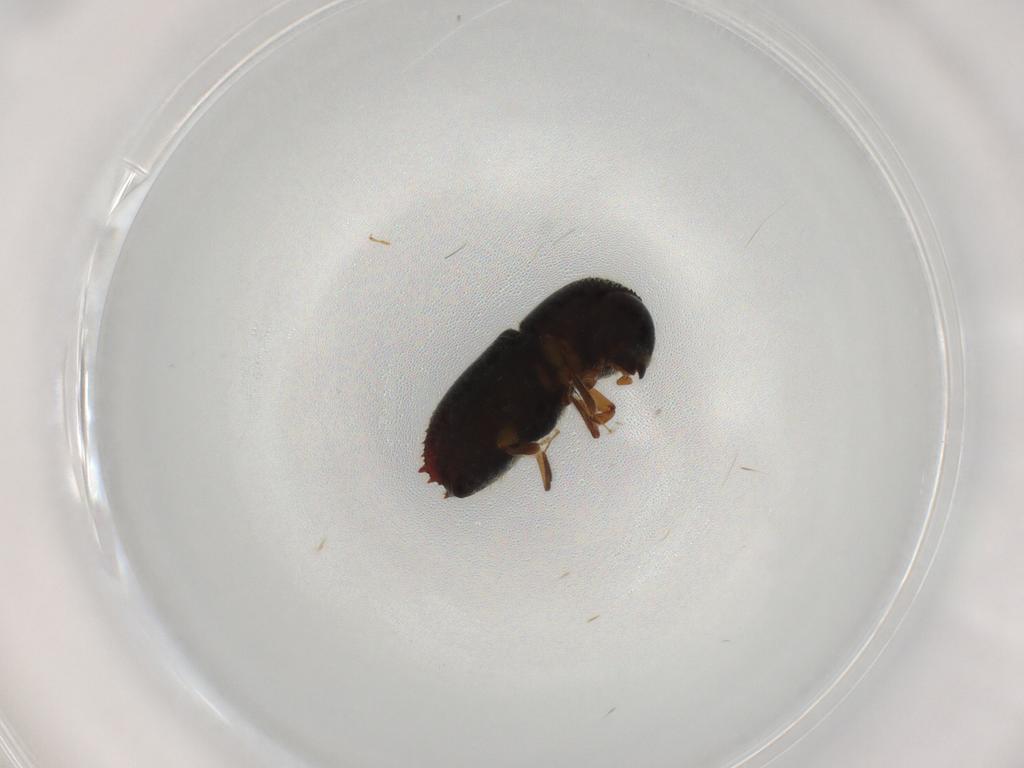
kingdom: Animalia
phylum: Arthropoda
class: Insecta
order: Coleoptera
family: Curculionidae
